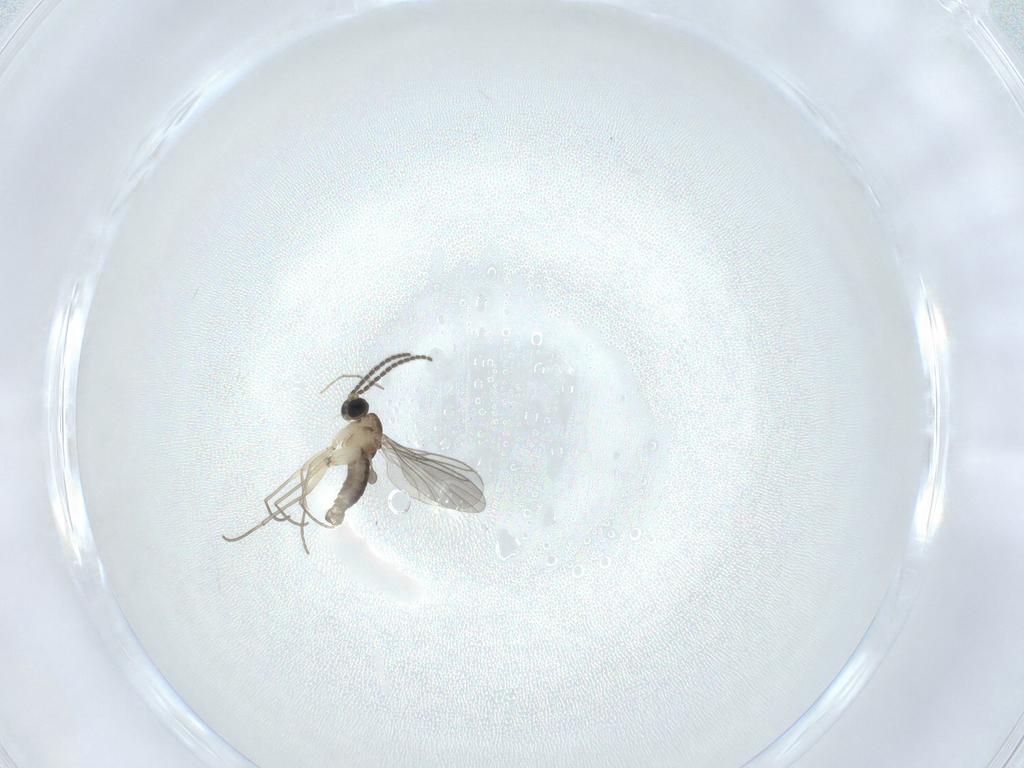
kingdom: Animalia
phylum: Arthropoda
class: Insecta
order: Diptera
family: Sciaridae
